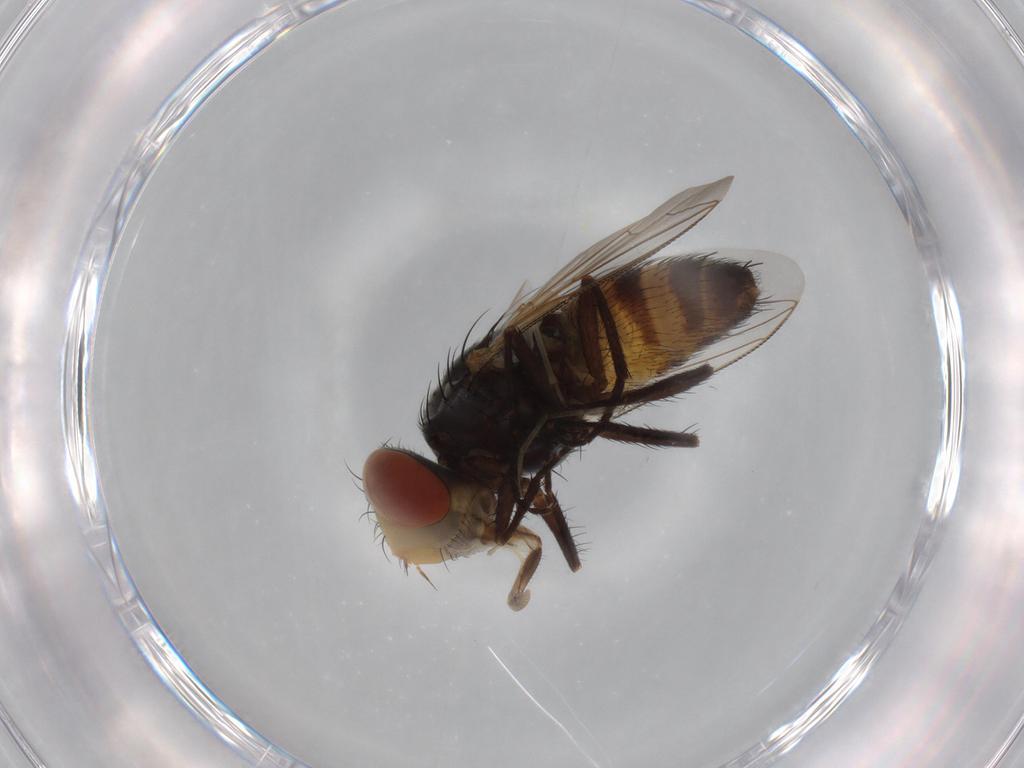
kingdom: Animalia
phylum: Arthropoda
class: Insecta
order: Diptera
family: Sarcophagidae
